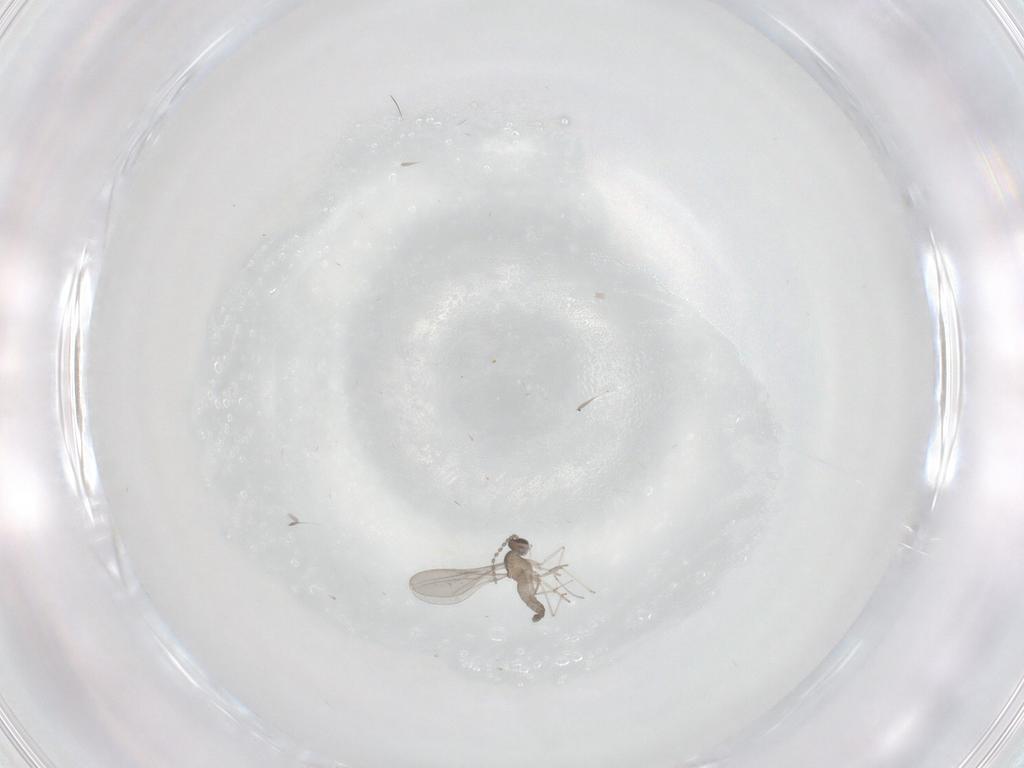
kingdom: Animalia
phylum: Arthropoda
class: Insecta
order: Diptera
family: Cecidomyiidae
